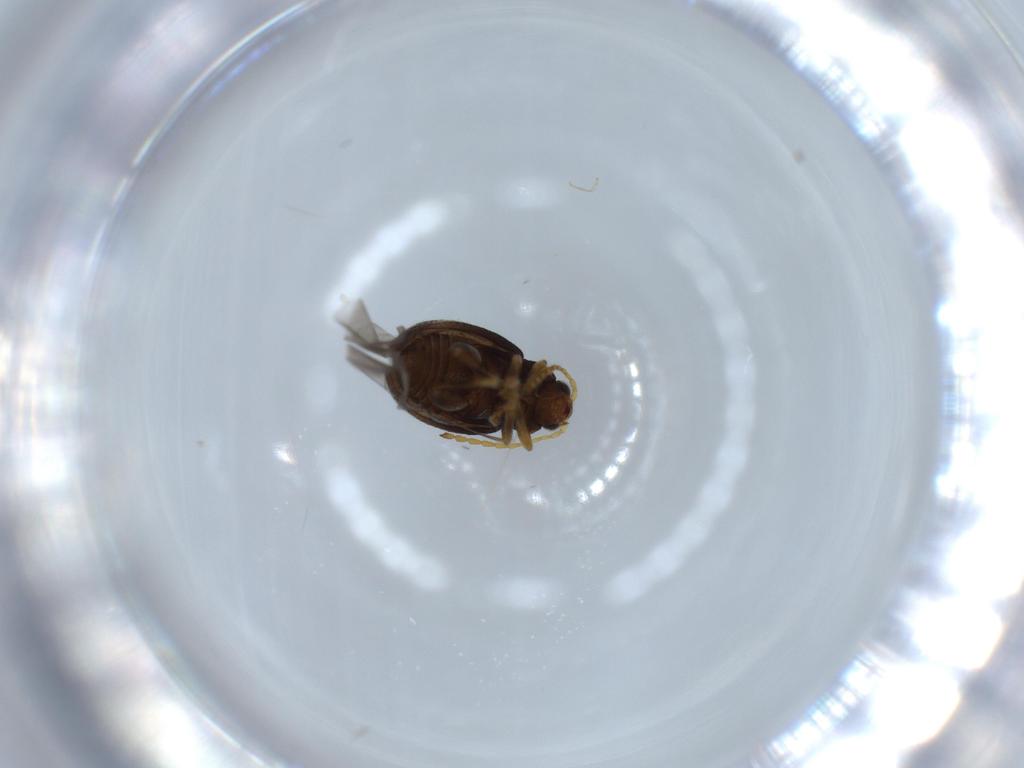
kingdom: Animalia
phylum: Arthropoda
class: Insecta
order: Coleoptera
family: Chrysomelidae
